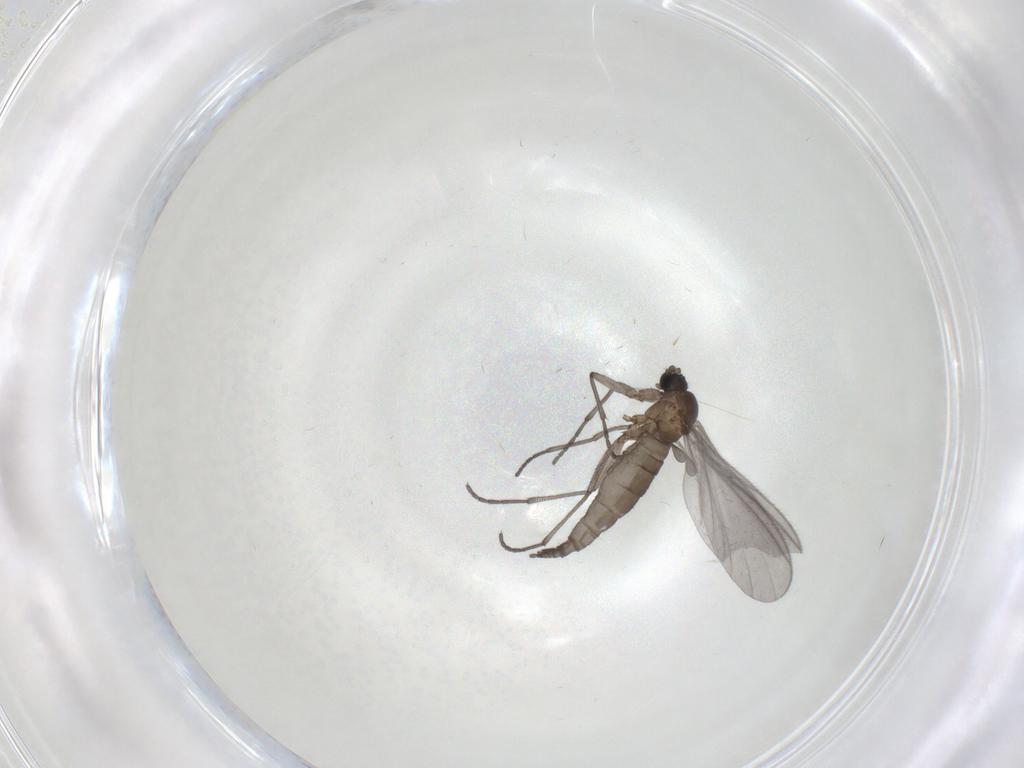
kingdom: Animalia
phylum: Arthropoda
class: Insecta
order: Diptera
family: Sciaridae
